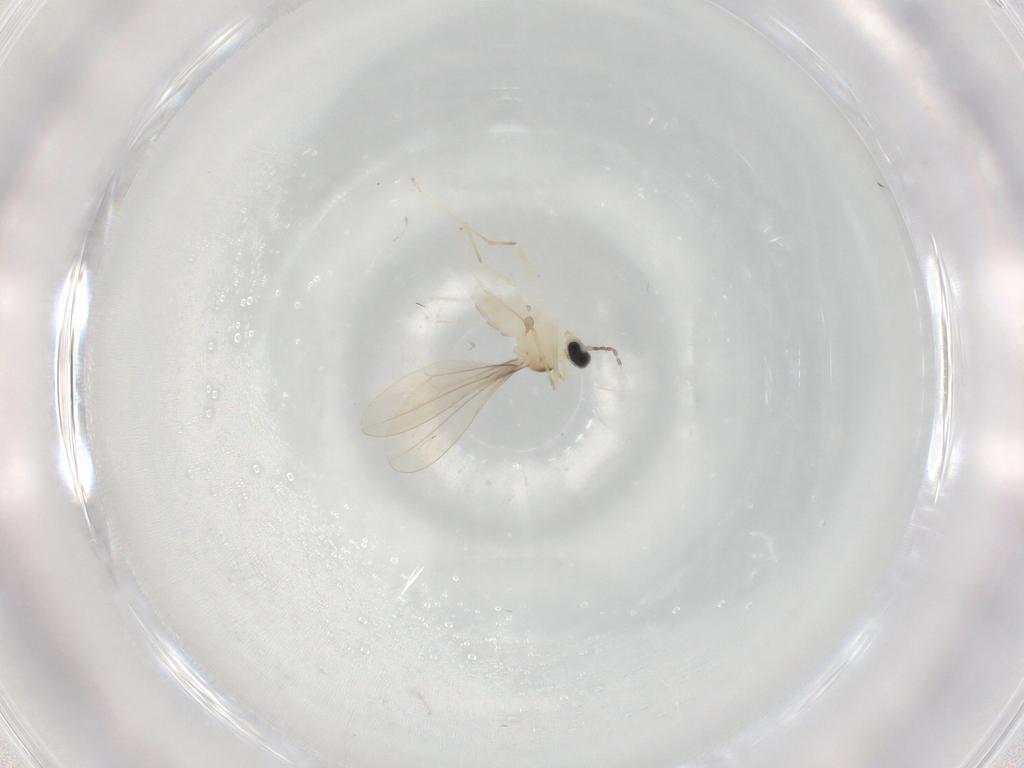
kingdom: Animalia
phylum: Arthropoda
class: Insecta
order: Diptera
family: Cecidomyiidae
